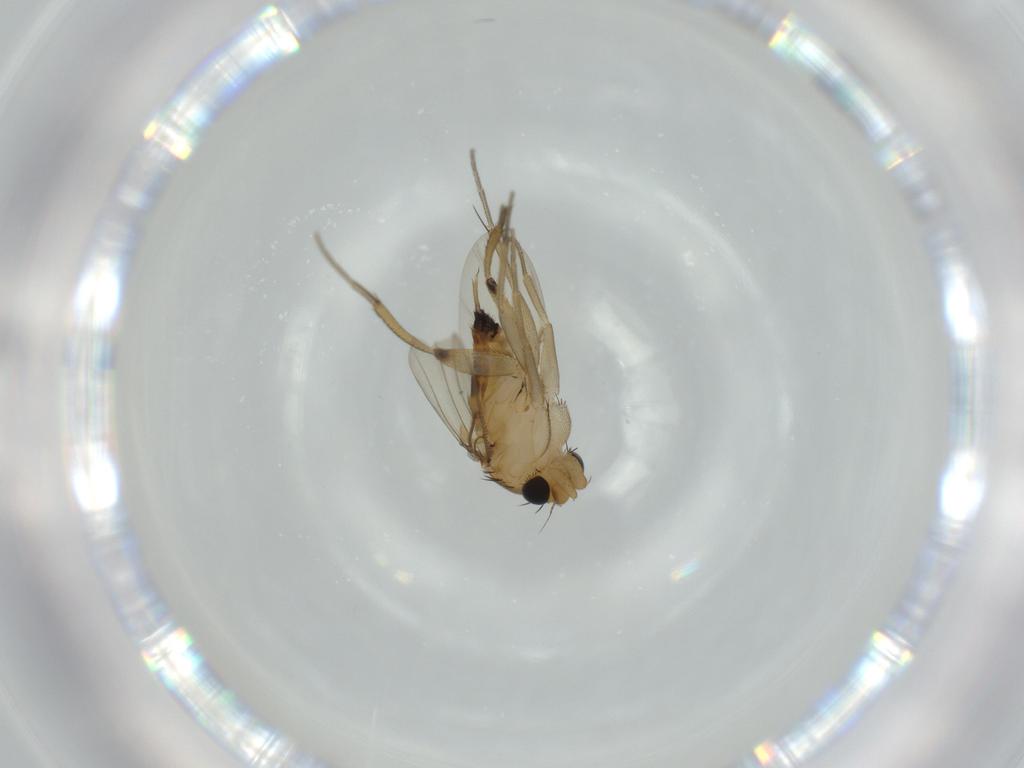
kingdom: Animalia
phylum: Arthropoda
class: Insecta
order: Diptera
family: Phoridae
